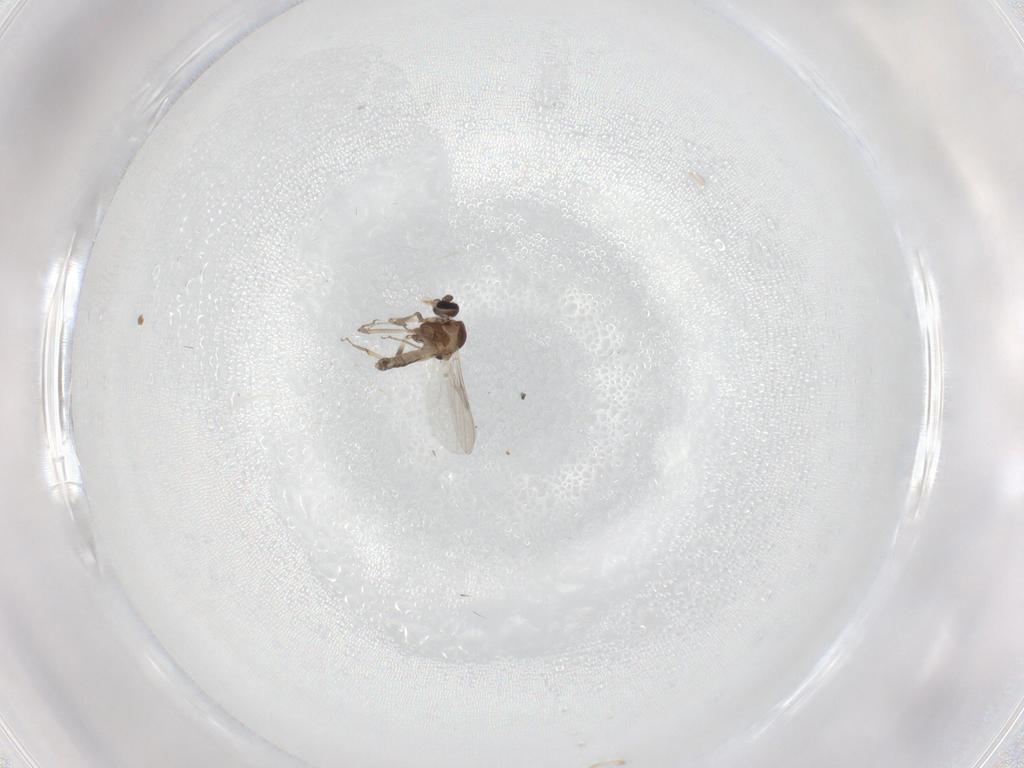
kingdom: Animalia
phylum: Arthropoda
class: Insecta
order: Diptera
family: Ceratopogonidae
